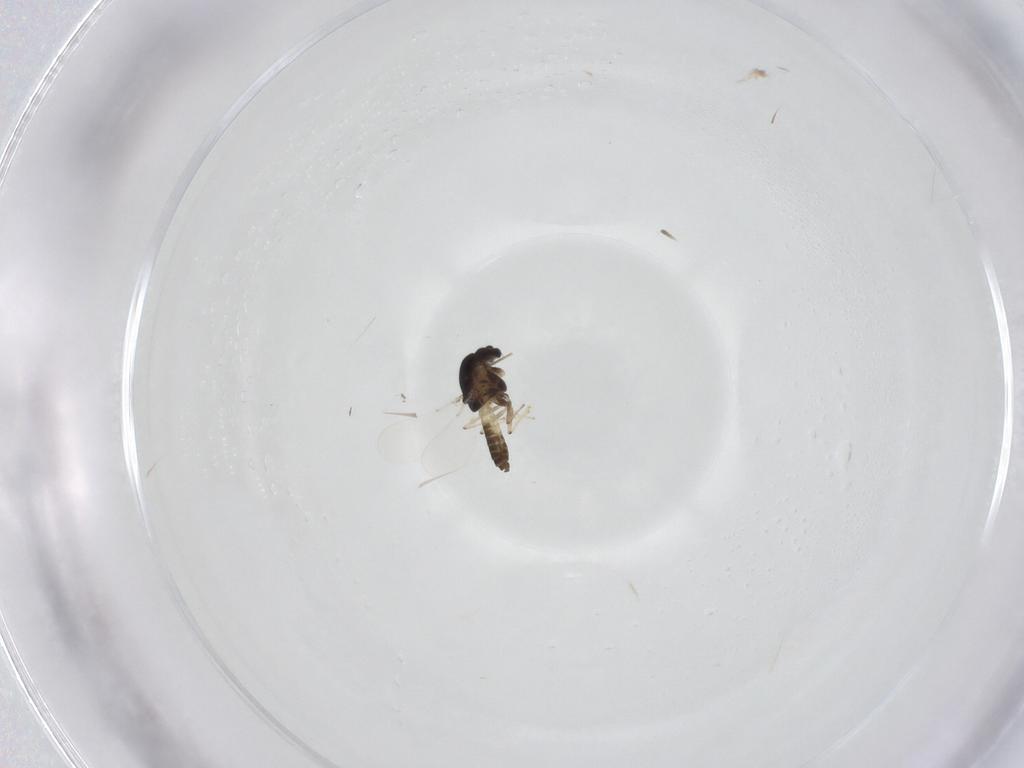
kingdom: Animalia
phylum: Arthropoda
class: Insecta
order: Diptera
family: Chironomidae
